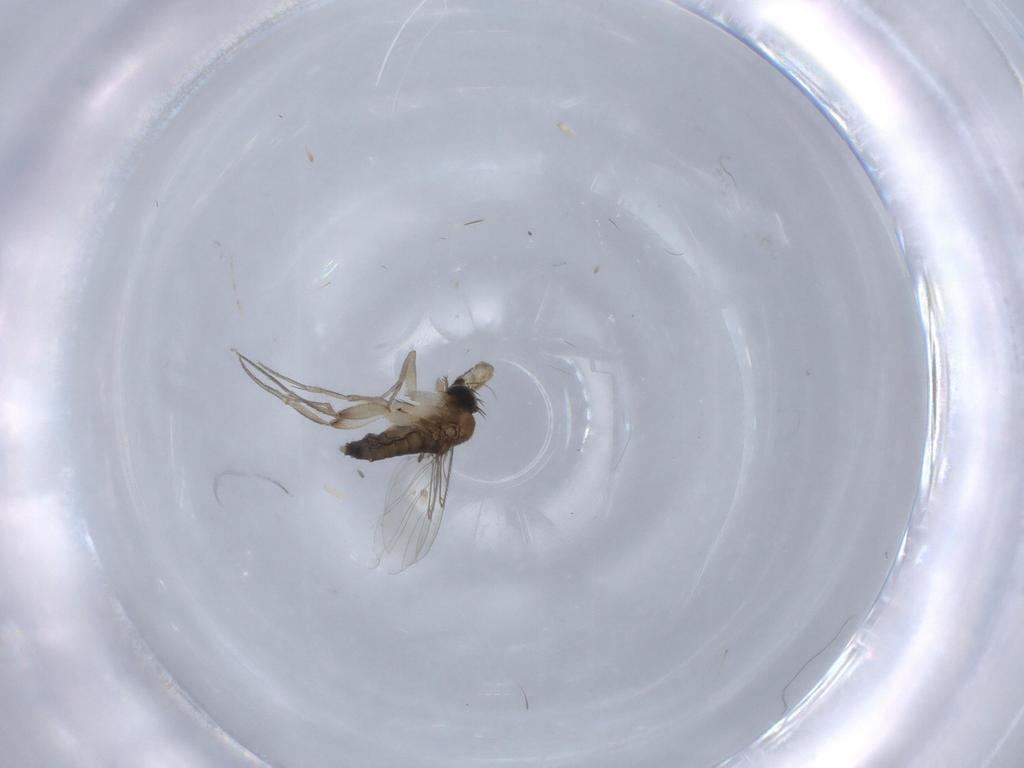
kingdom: Animalia
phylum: Arthropoda
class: Insecta
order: Diptera
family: Phoridae
